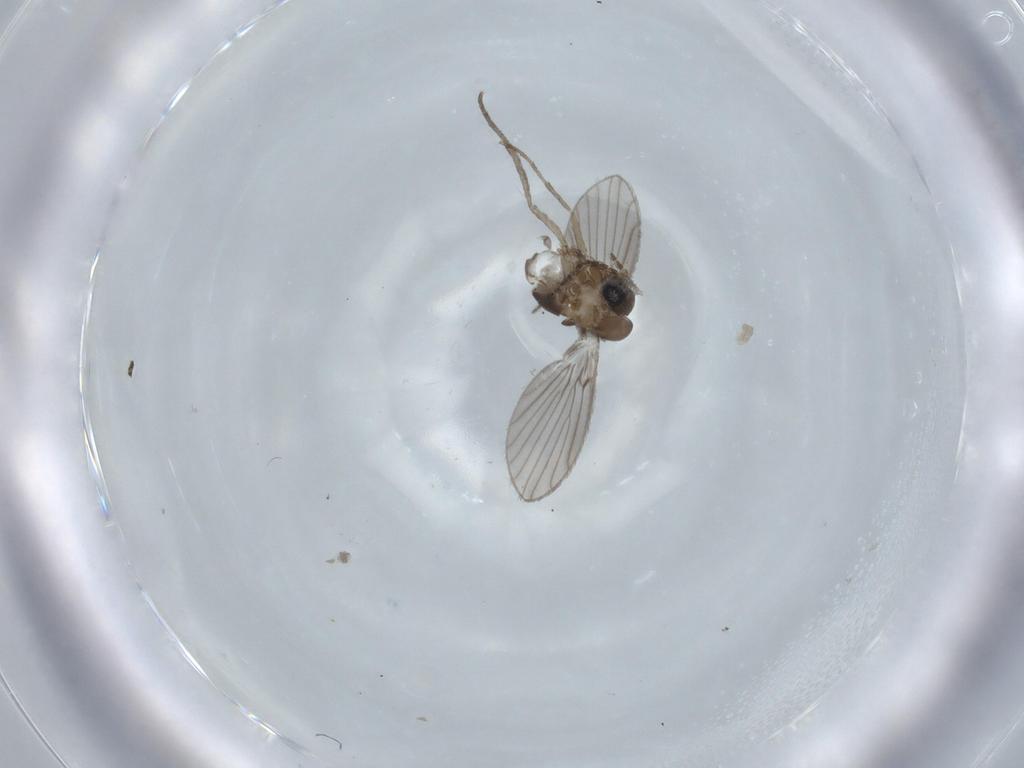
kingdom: Animalia
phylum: Arthropoda
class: Insecta
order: Diptera
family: Psychodidae
